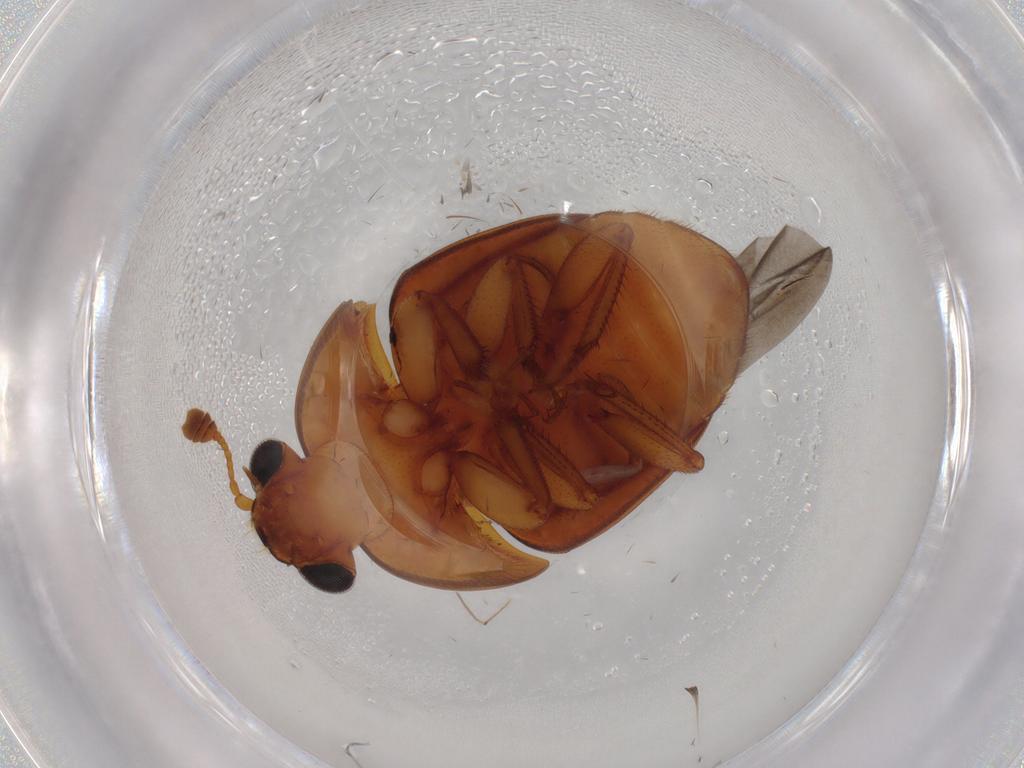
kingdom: Animalia
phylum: Arthropoda
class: Insecta
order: Coleoptera
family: Nitidulidae
